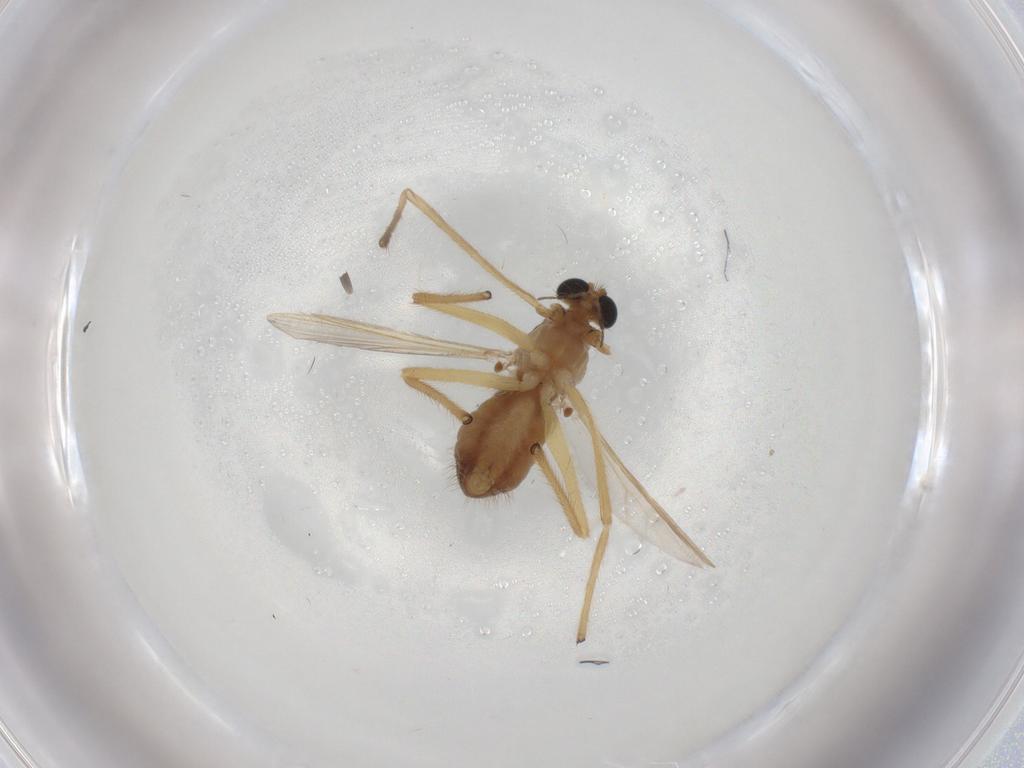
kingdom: Animalia
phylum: Arthropoda
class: Insecta
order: Diptera
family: Chironomidae
